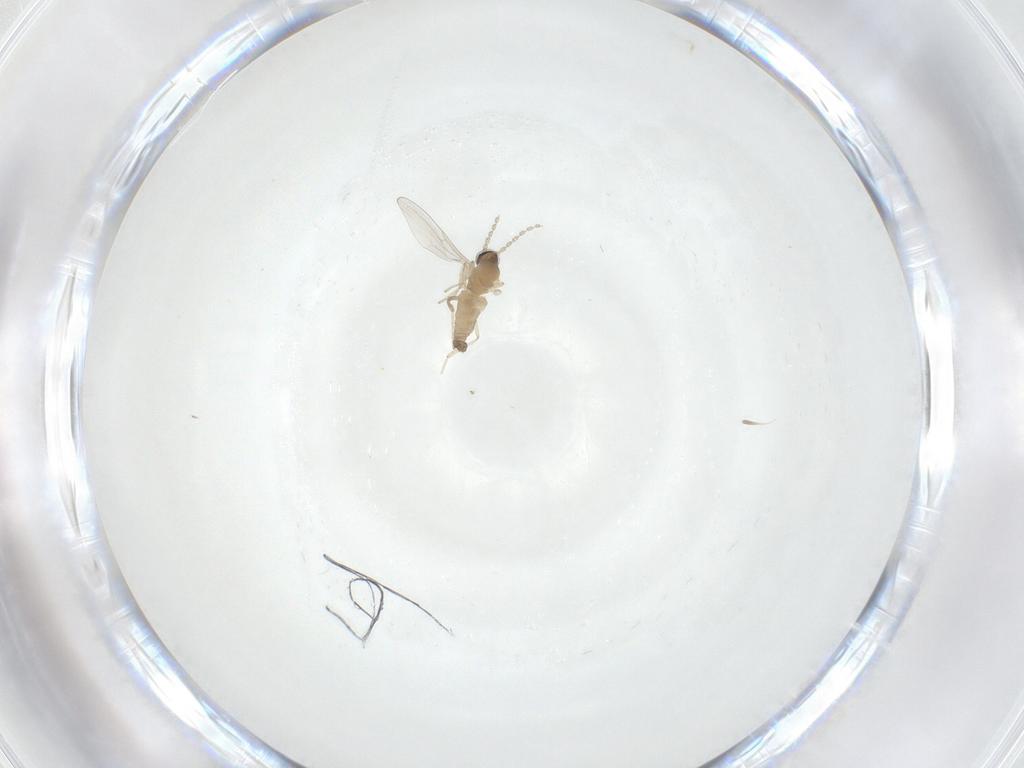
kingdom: Animalia
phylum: Arthropoda
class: Insecta
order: Diptera
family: Cecidomyiidae
